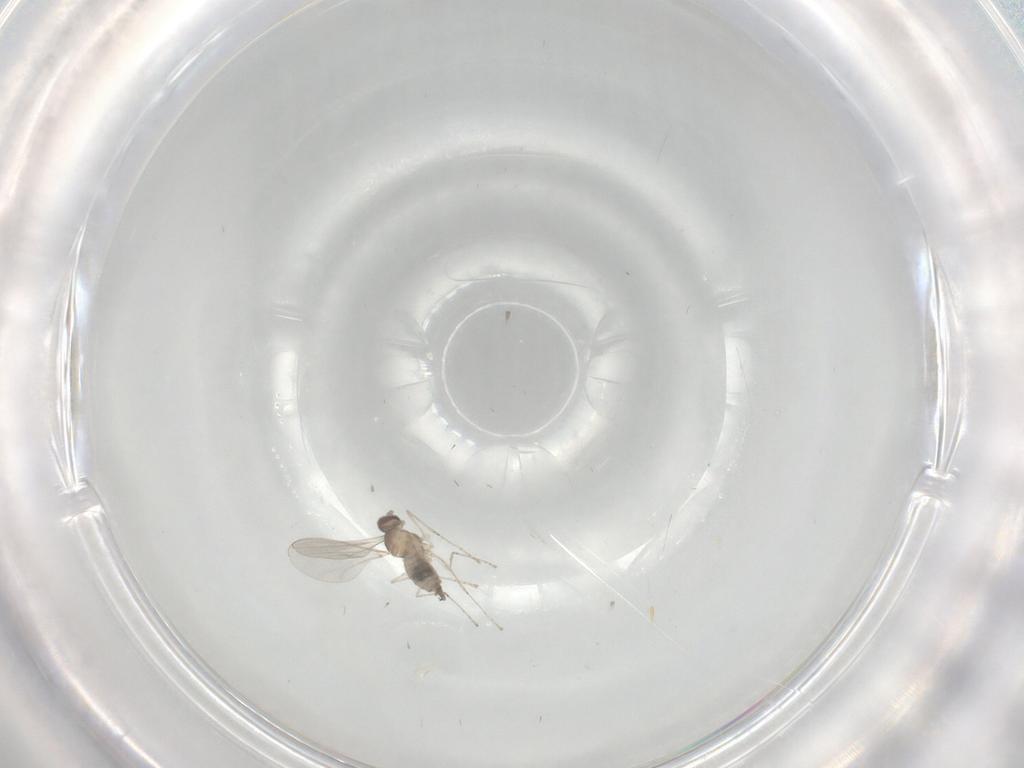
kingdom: Animalia
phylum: Arthropoda
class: Insecta
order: Diptera
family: Cecidomyiidae
